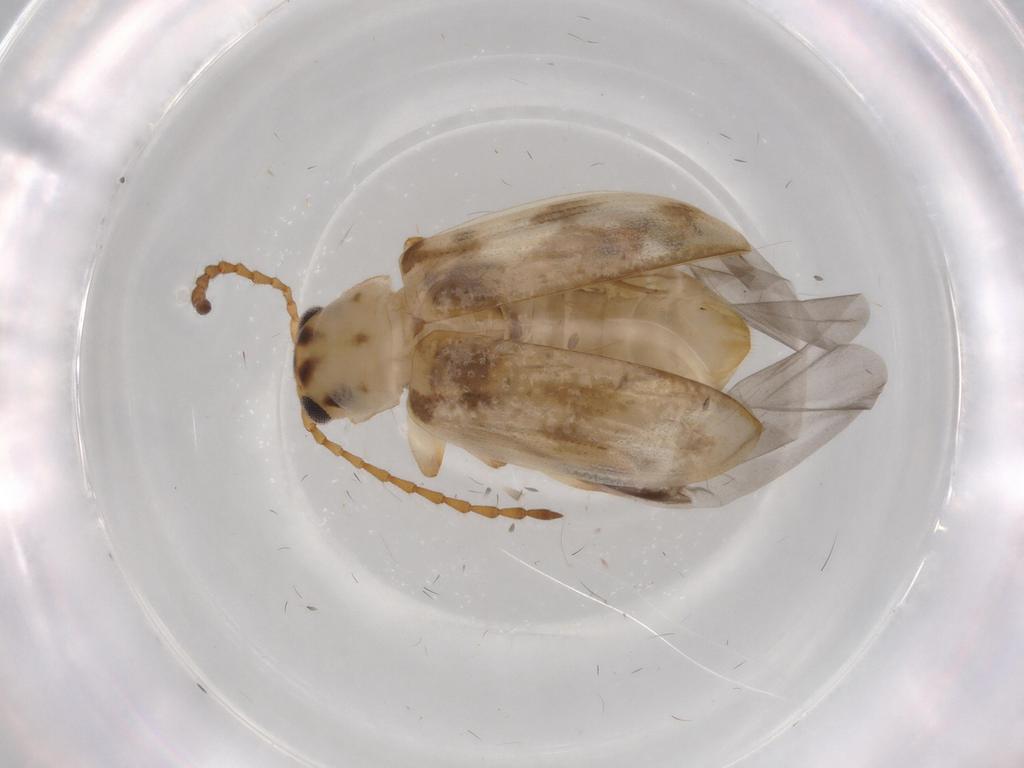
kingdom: Animalia
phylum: Arthropoda
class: Insecta
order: Coleoptera
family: Chrysomelidae
